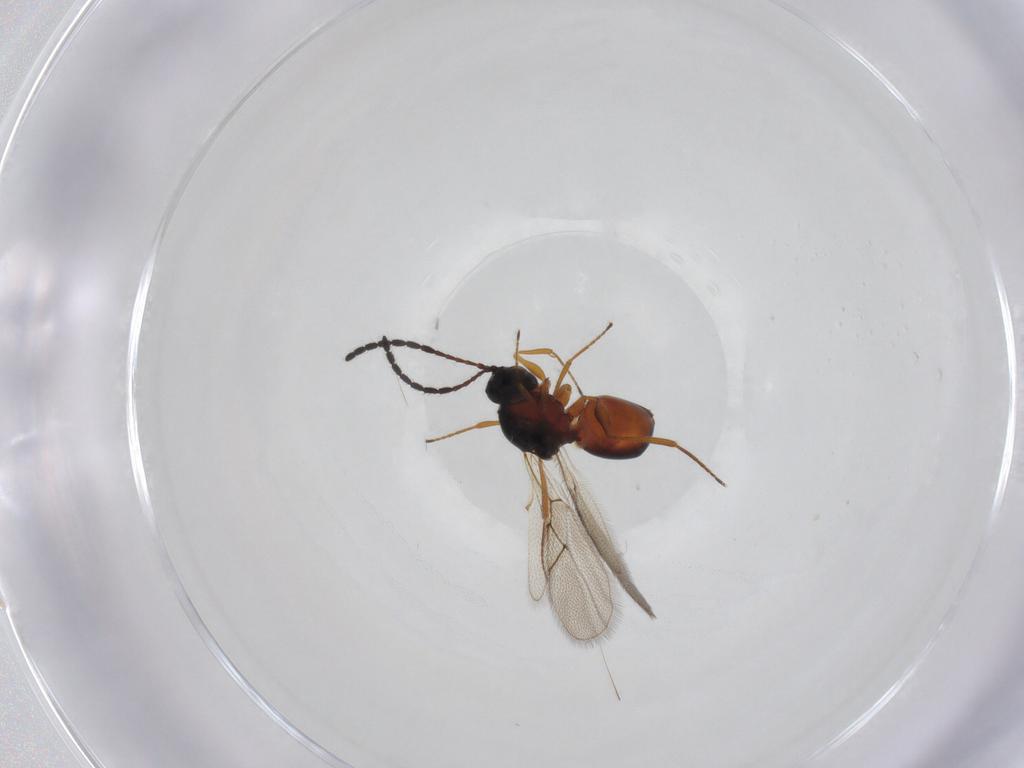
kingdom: Animalia
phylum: Arthropoda
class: Insecta
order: Hymenoptera
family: Figitidae
